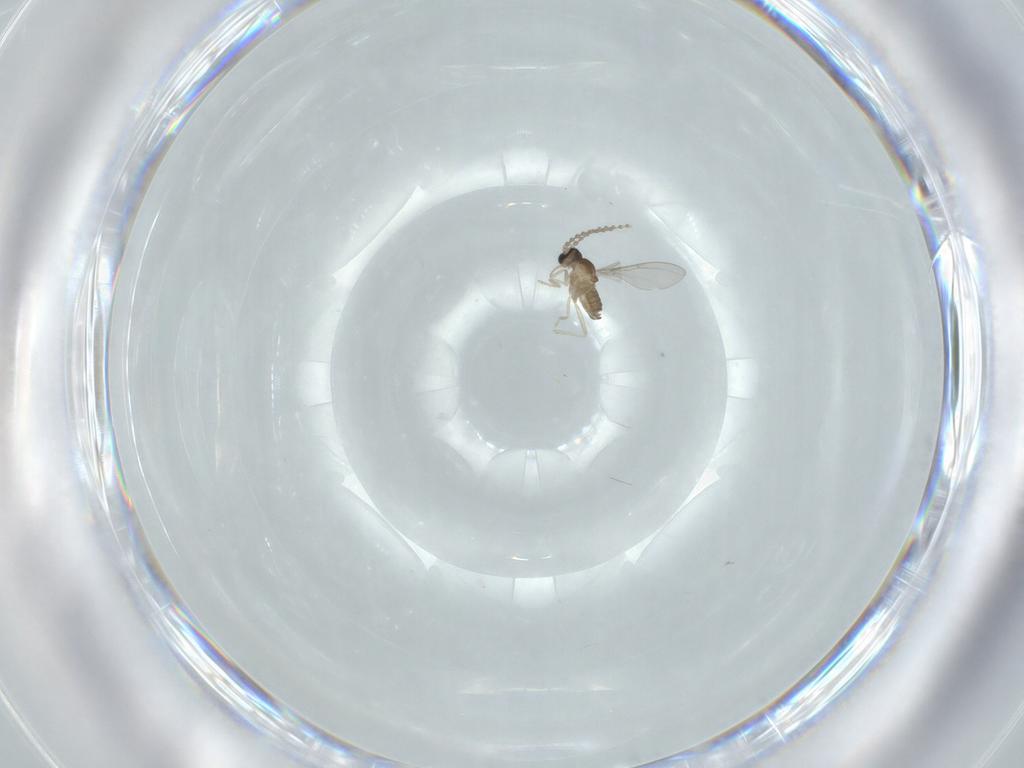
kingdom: Animalia
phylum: Arthropoda
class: Insecta
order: Diptera
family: Cecidomyiidae
